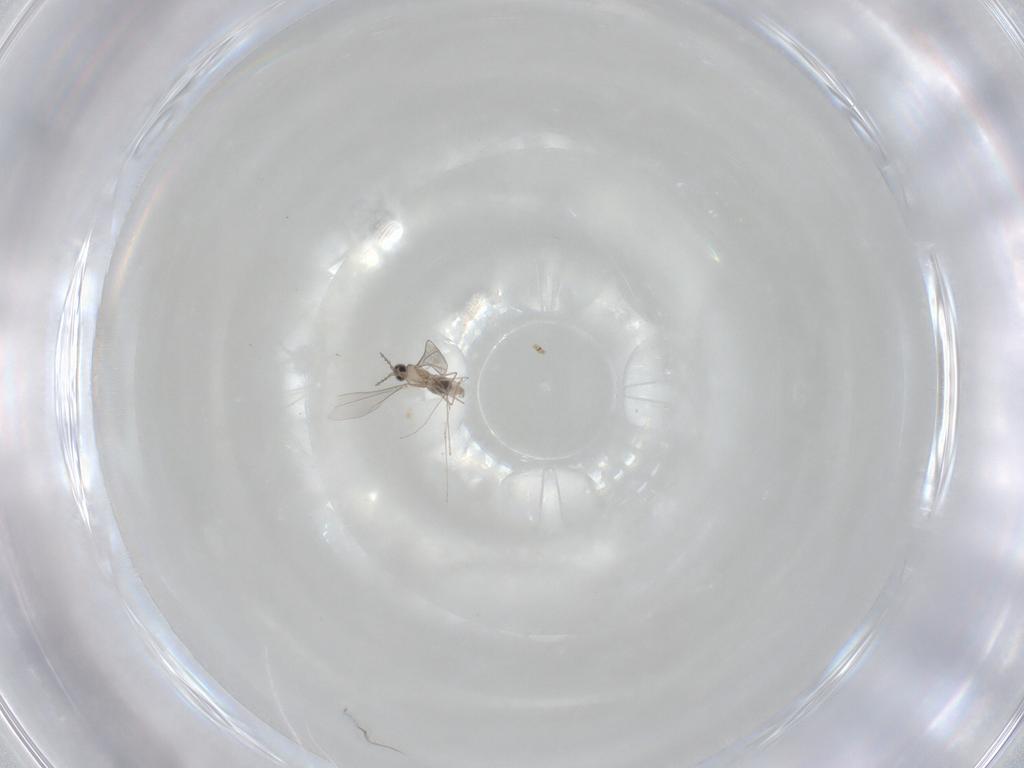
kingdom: Animalia
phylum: Arthropoda
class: Insecta
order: Diptera
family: Cecidomyiidae
